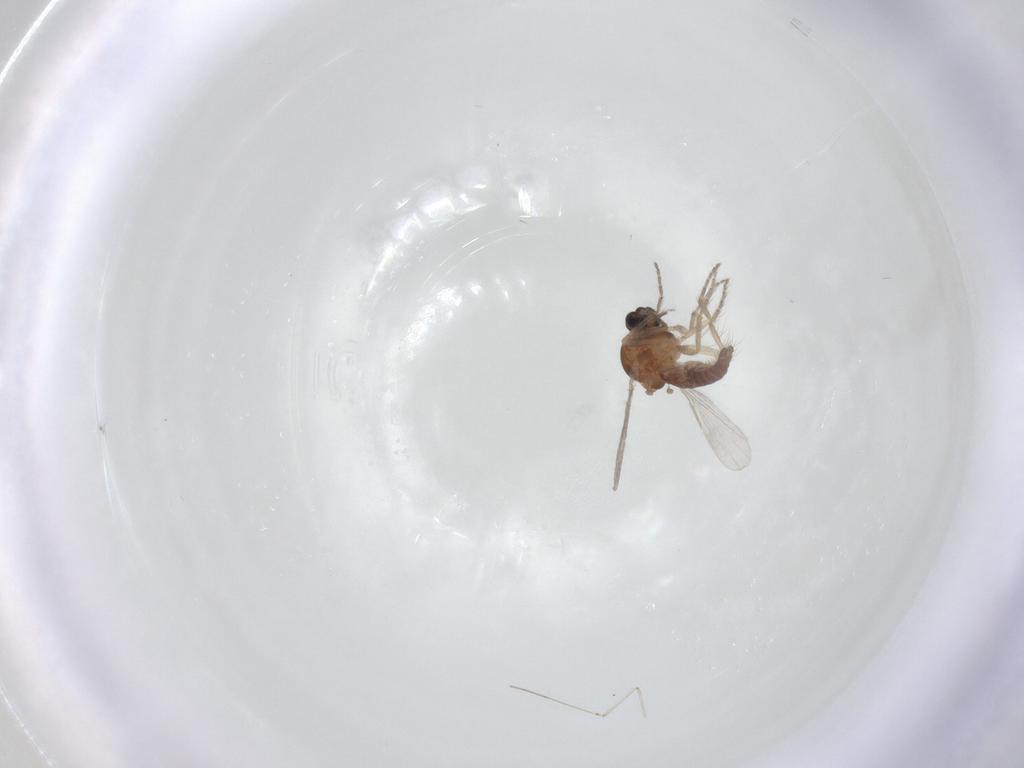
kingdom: Animalia
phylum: Arthropoda
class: Insecta
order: Diptera
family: Ceratopogonidae
